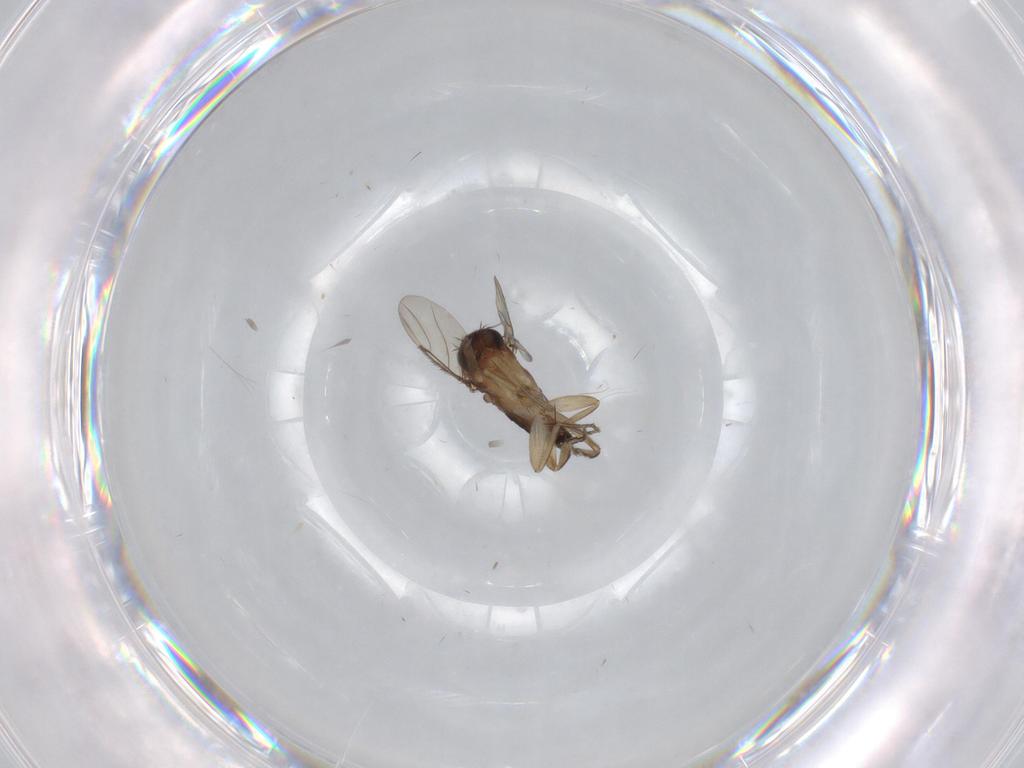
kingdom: Animalia
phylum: Arthropoda
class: Insecta
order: Diptera
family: Phoridae
